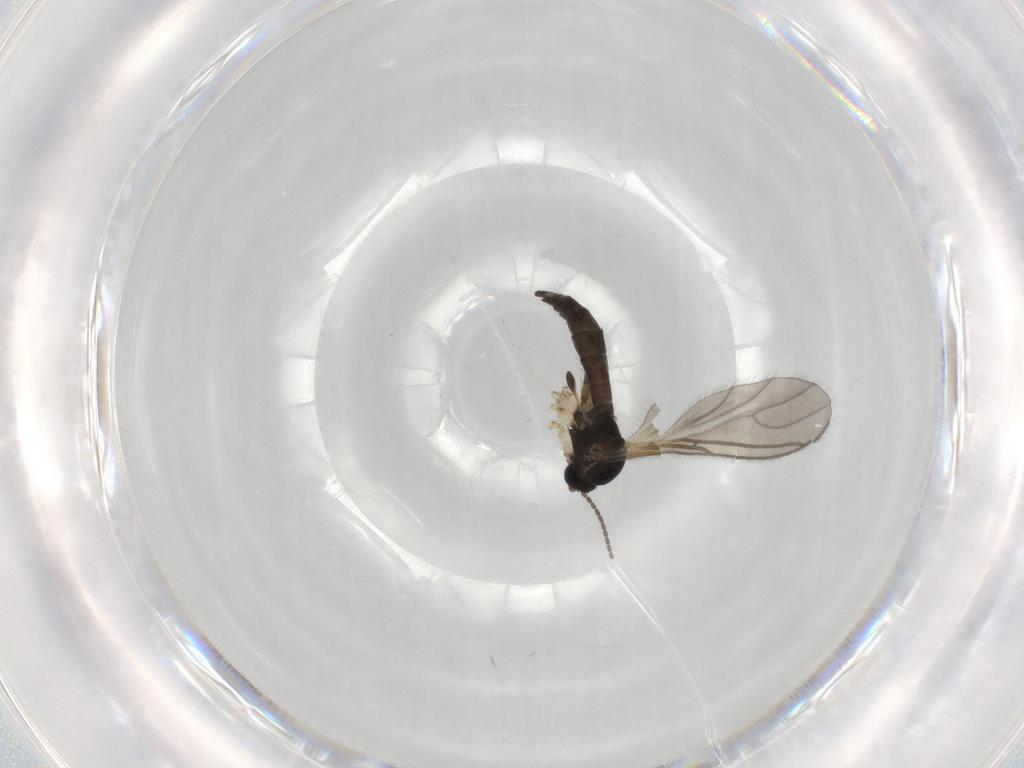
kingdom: Animalia
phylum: Arthropoda
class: Insecta
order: Diptera
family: Sciaridae
